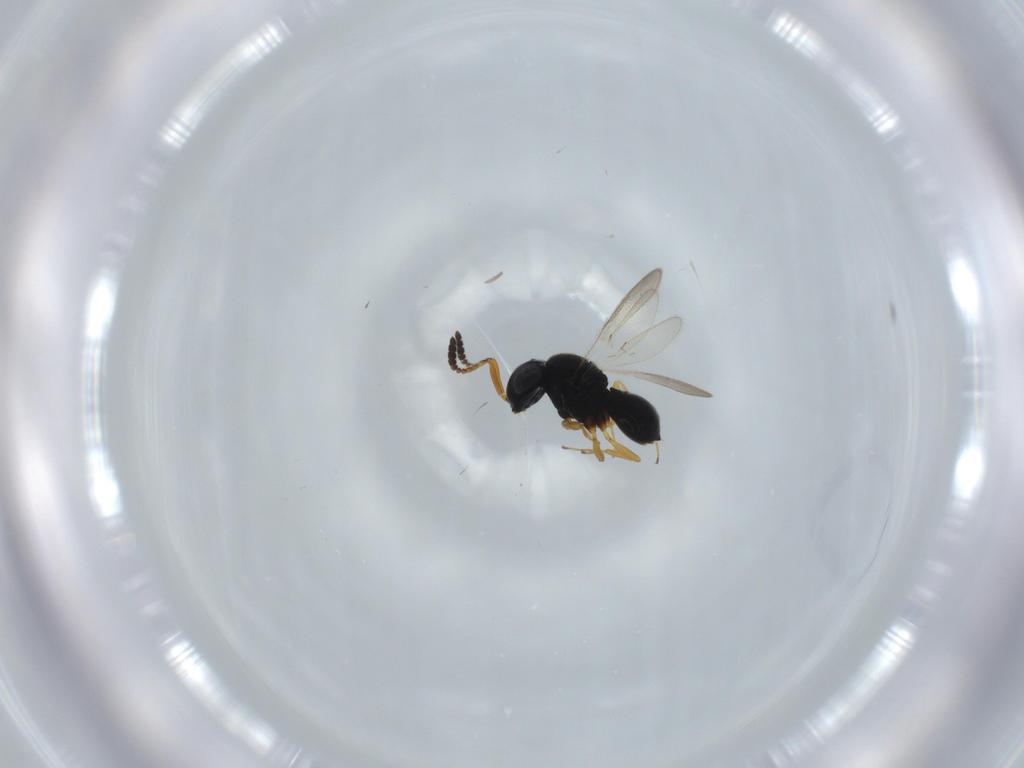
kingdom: Animalia
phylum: Arthropoda
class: Insecta
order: Hymenoptera
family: Scelionidae
